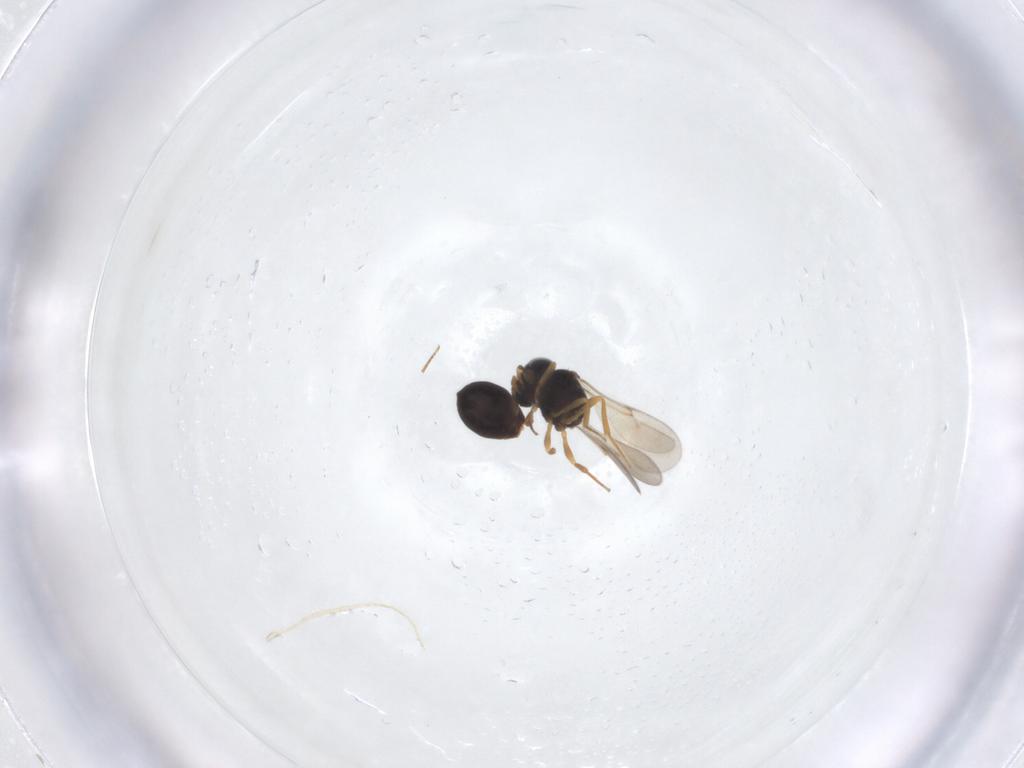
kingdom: Animalia
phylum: Arthropoda
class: Insecta
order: Hymenoptera
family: Scelionidae
